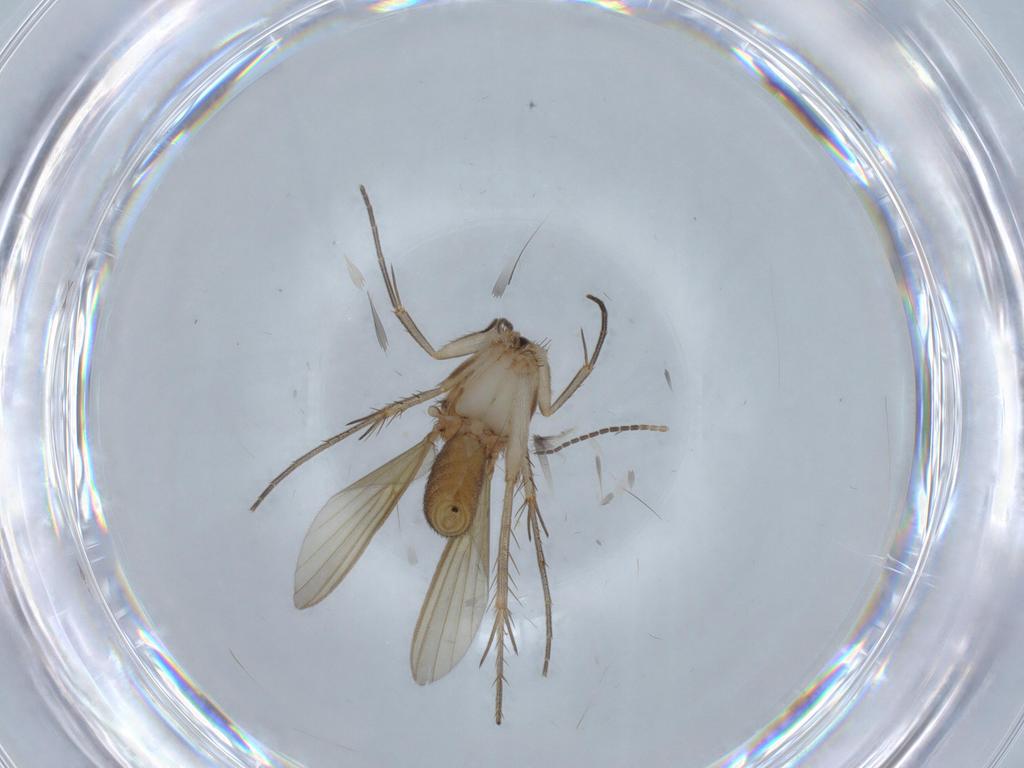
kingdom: Animalia
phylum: Arthropoda
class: Insecta
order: Diptera
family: Mycetophilidae
